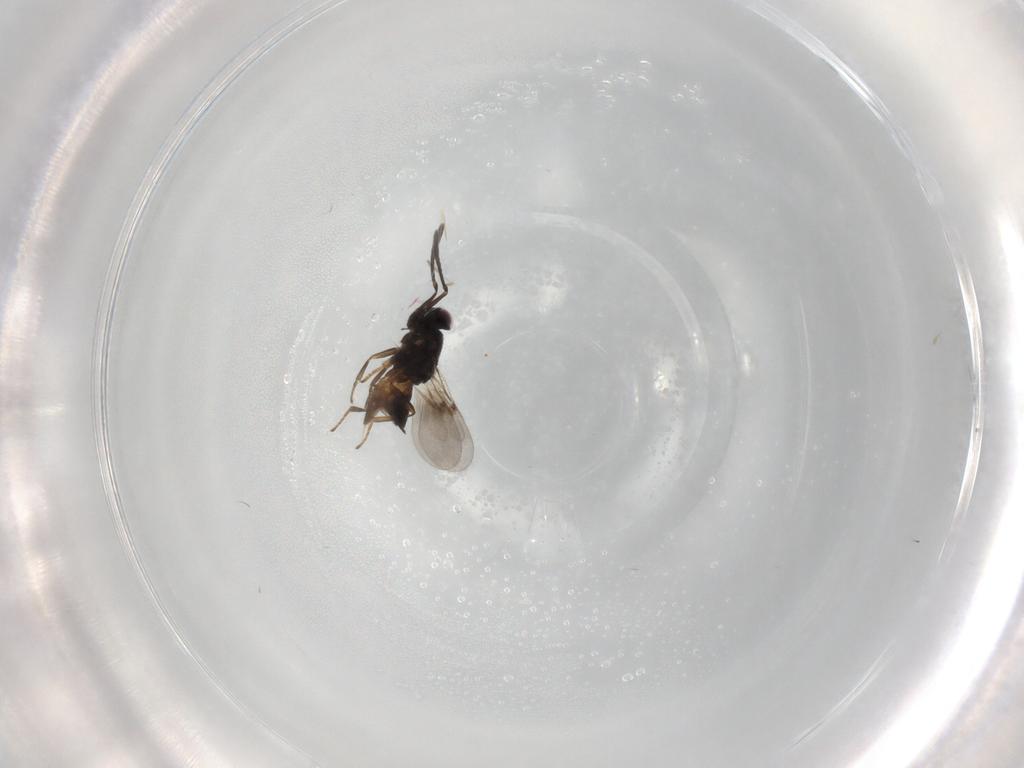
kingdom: Animalia
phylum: Arthropoda
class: Insecta
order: Hymenoptera
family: Encyrtidae
